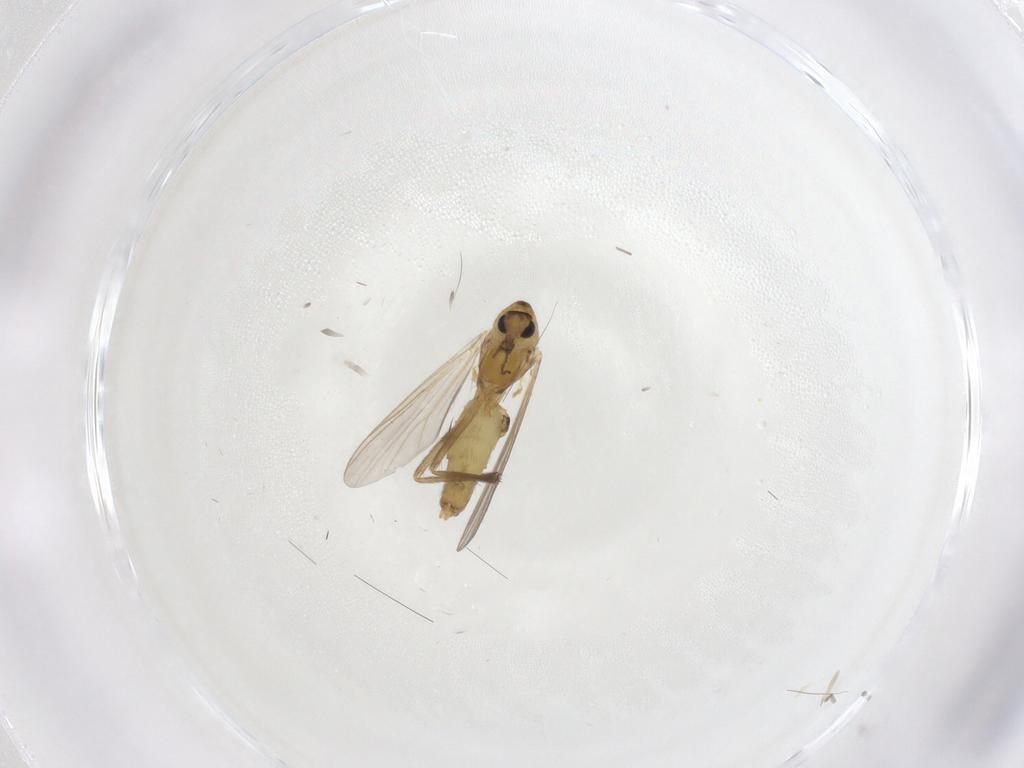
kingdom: Animalia
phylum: Arthropoda
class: Insecta
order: Diptera
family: Chironomidae
